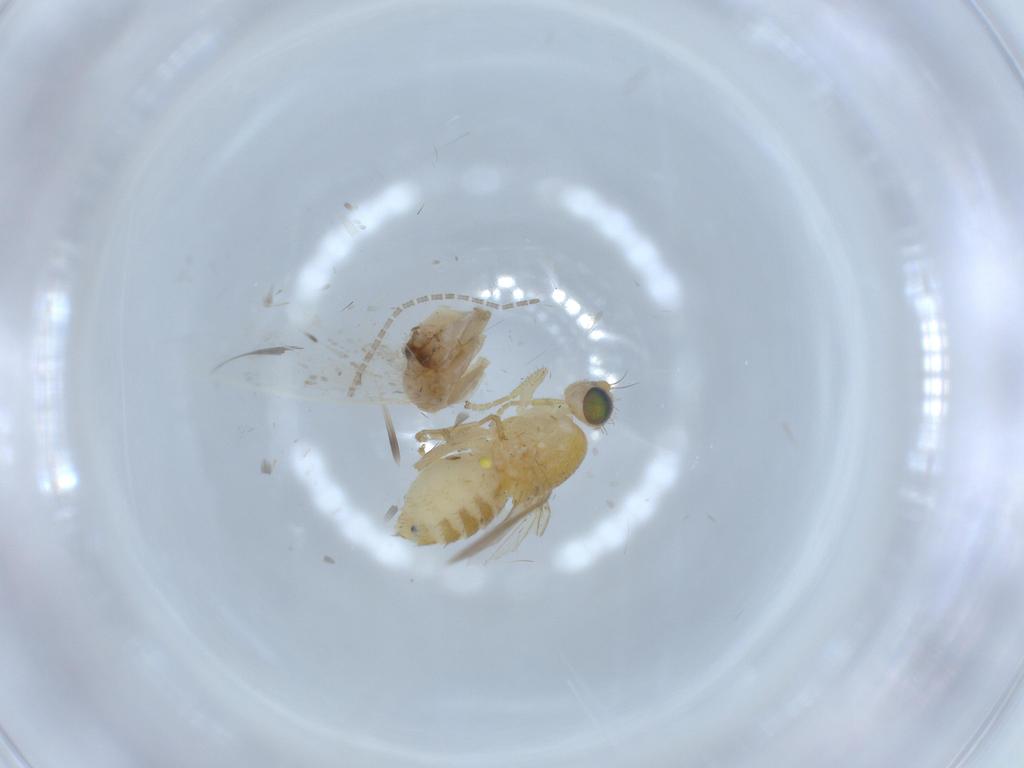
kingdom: Animalia
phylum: Arthropoda
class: Insecta
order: Diptera
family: Chyromyidae
